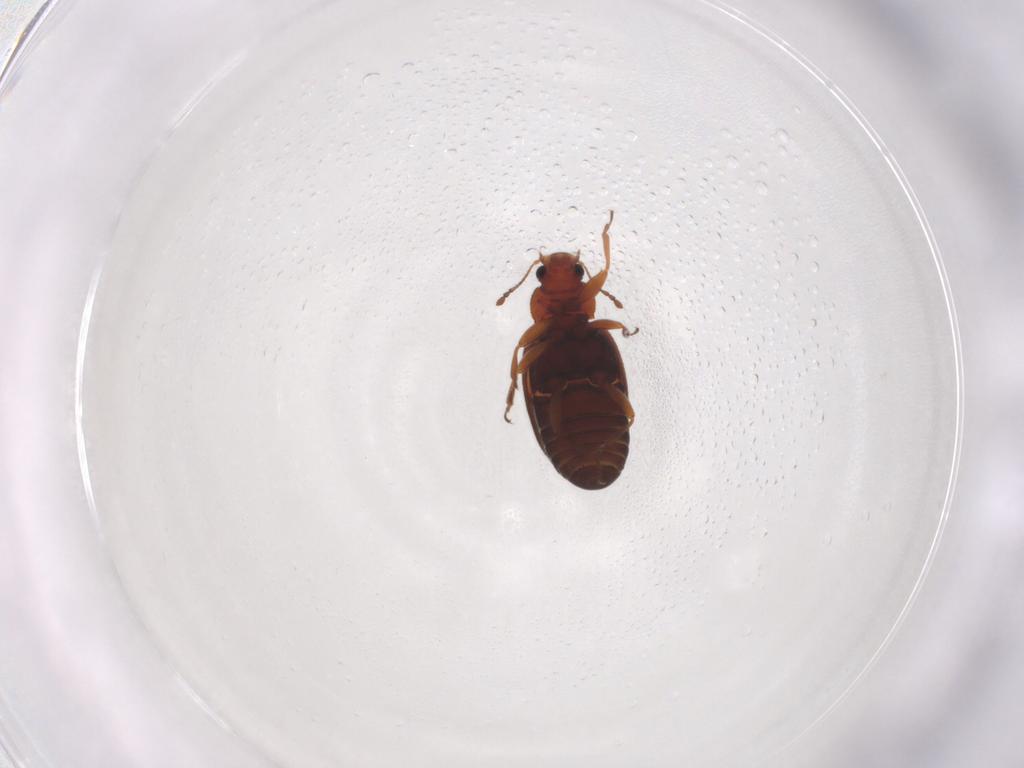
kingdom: Animalia
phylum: Arthropoda
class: Insecta
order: Coleoptera
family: Latridiidae
